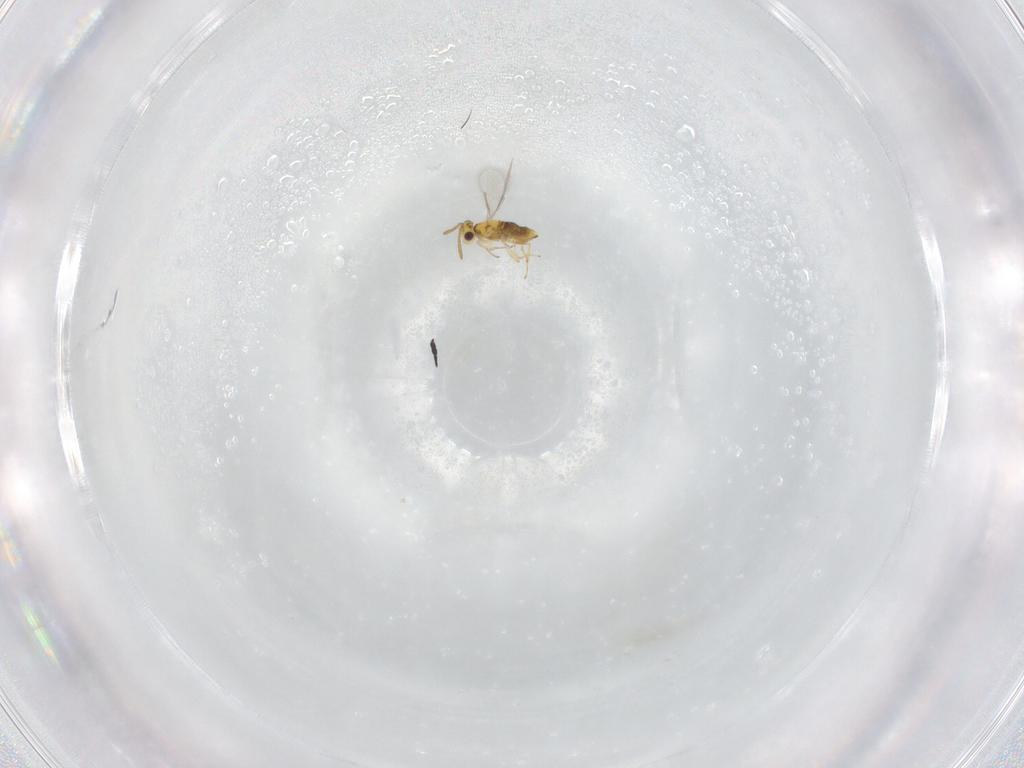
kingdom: Animalia
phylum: Arthropoda
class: Insecta
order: Hymenoptera
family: Aphelinidae
